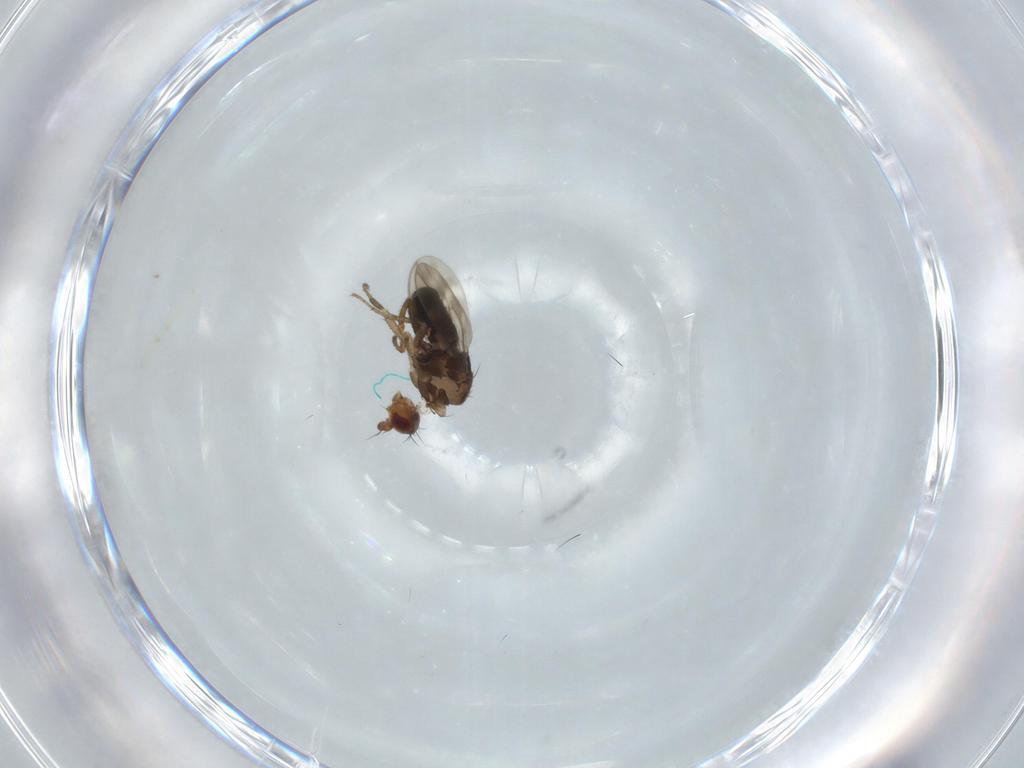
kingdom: Animalia
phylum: Arthropoda
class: Insecta
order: Diptera
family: Sphaeroceridae
